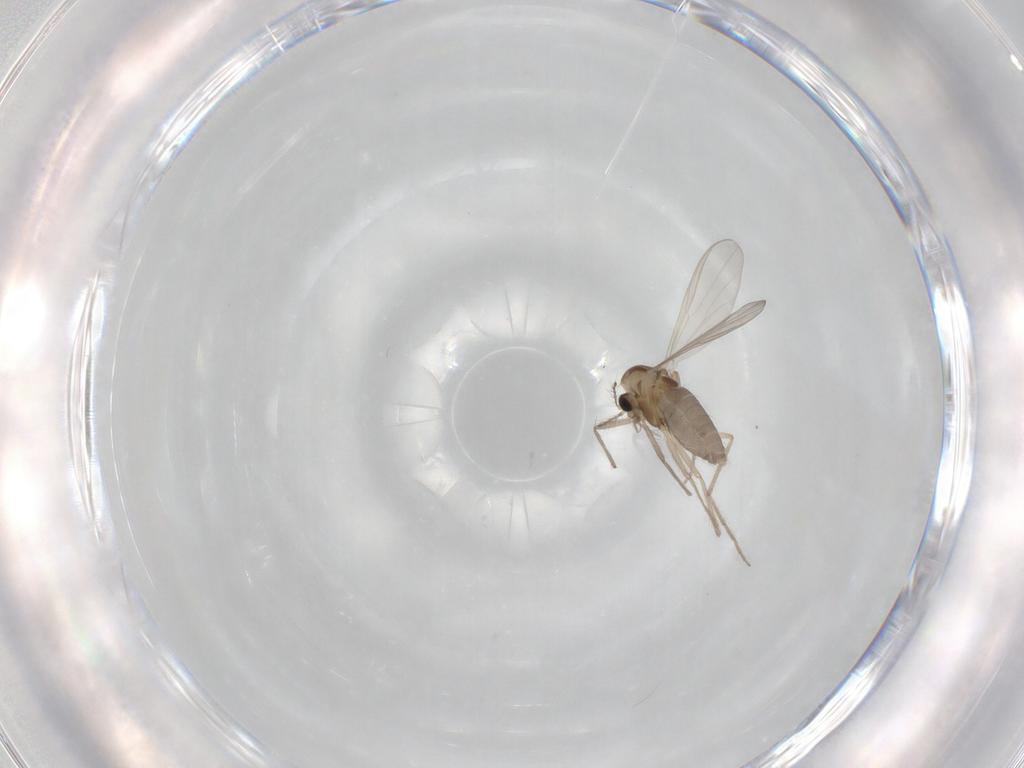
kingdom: Animalia
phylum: Arthropoda
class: Insecta
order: Diptera
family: Chironomidae
